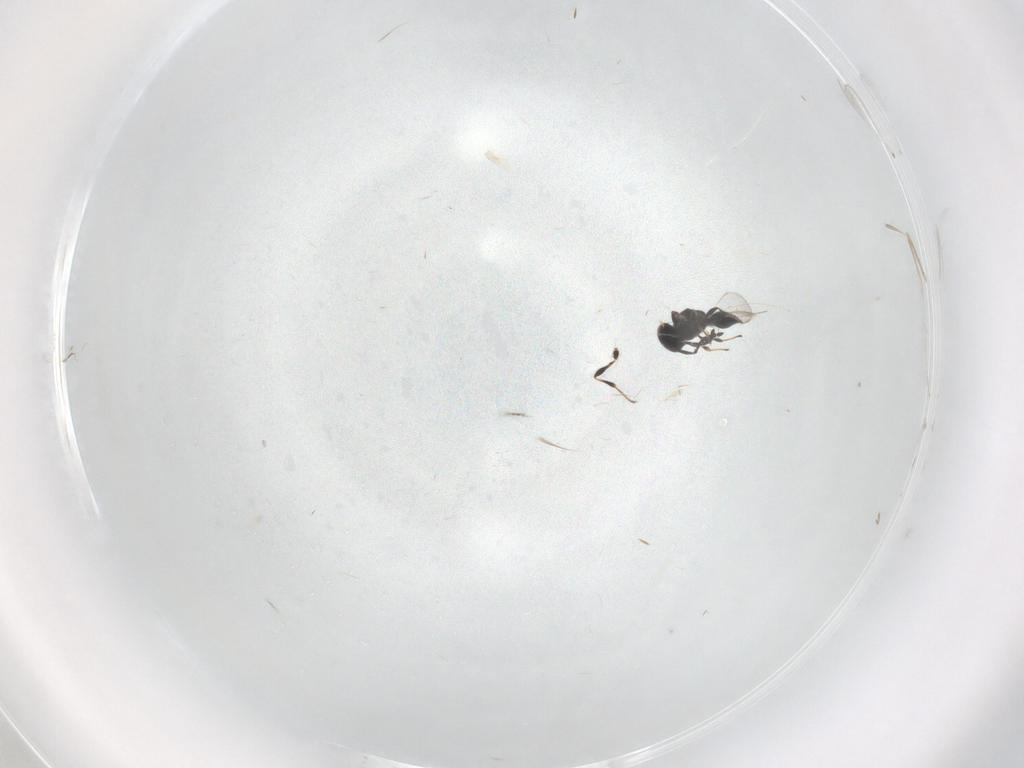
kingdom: Animalia
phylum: Arthropoda
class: Insecta
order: Hymenoptera
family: Platygastridae
